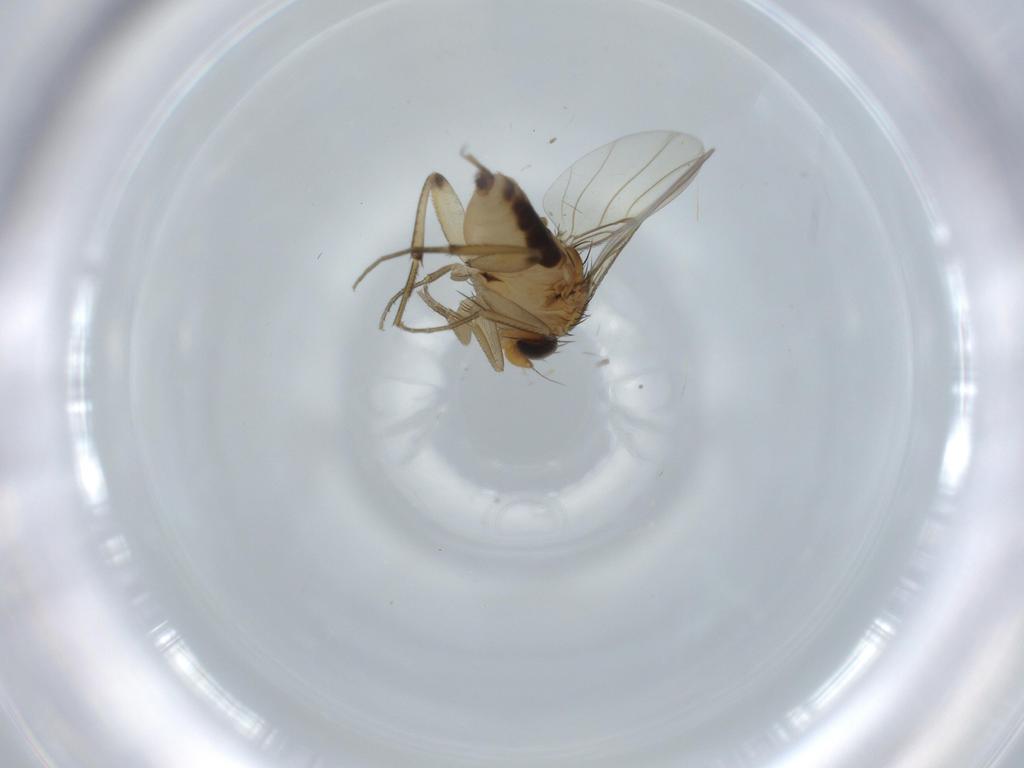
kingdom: Animalia
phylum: Arthropoda
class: Insecta
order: Diptera
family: Phoridae
